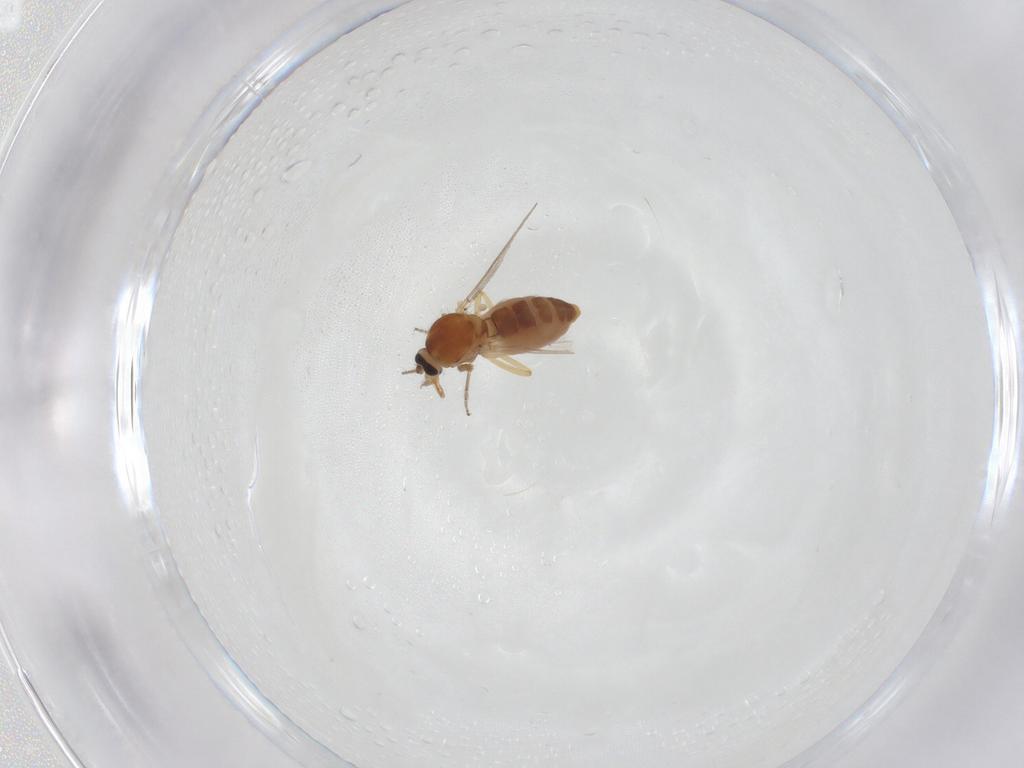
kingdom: Animalia
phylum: Arthropoda
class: Insecta
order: Diptera
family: Ceratopogonidae
